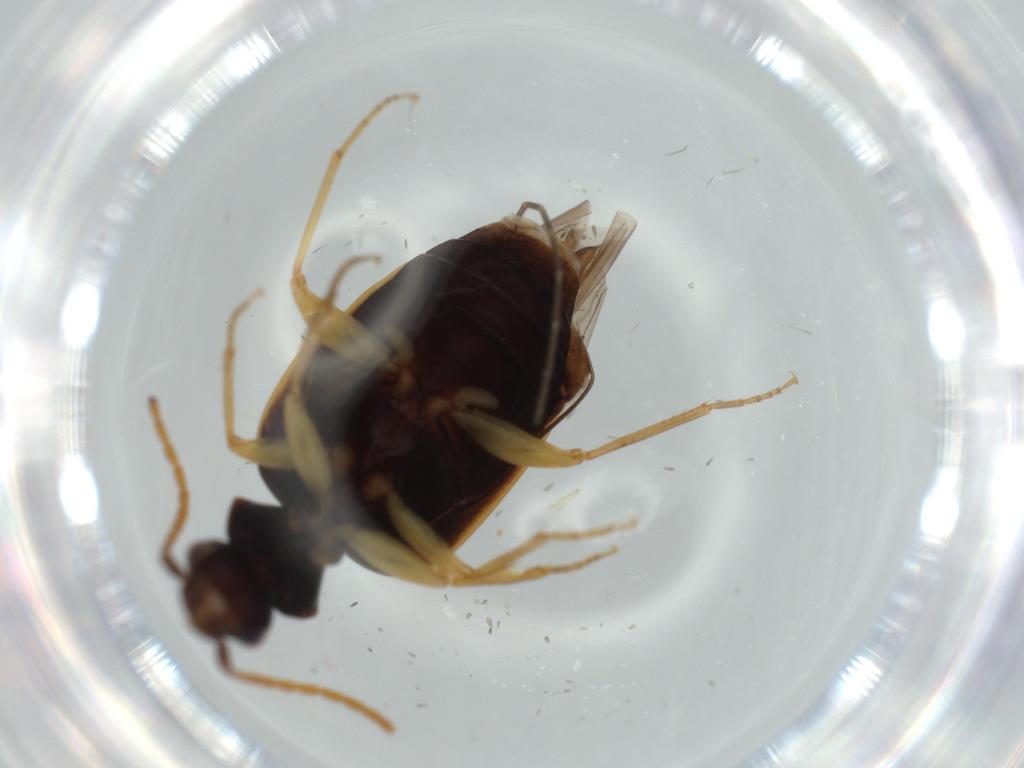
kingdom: Animalia
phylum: Arthropoda
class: Insecta
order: Coleoptera
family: Carabidae
